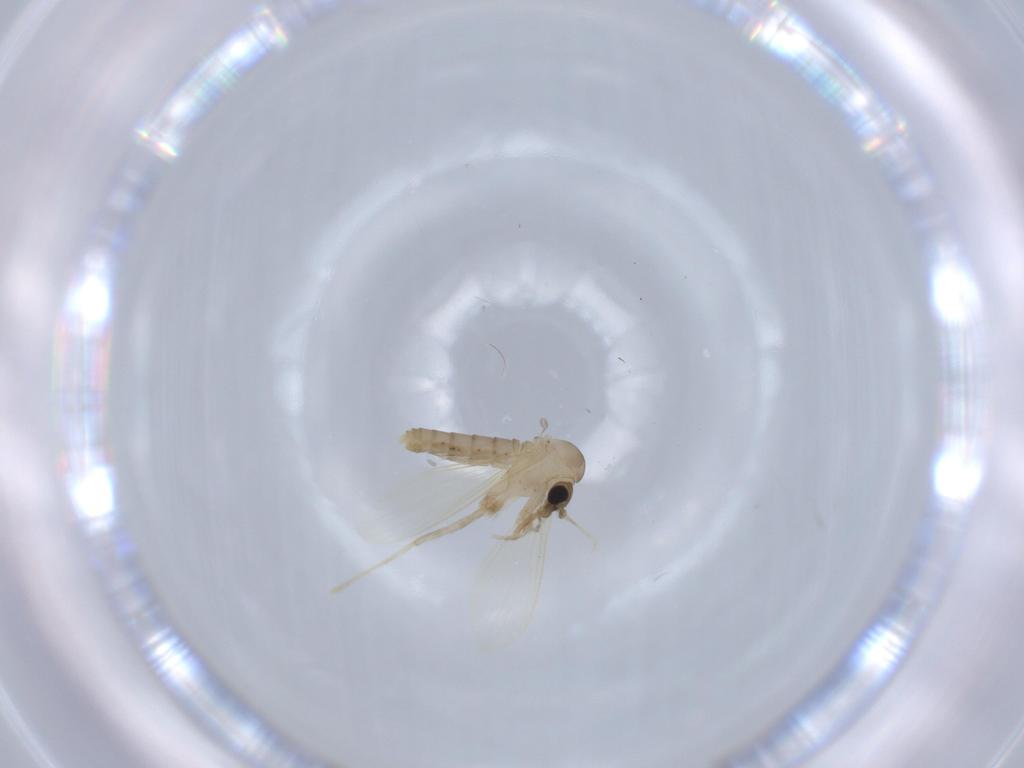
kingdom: Animalia
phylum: Arthropoda
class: Insecta
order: Diptera
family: Psychodidae
